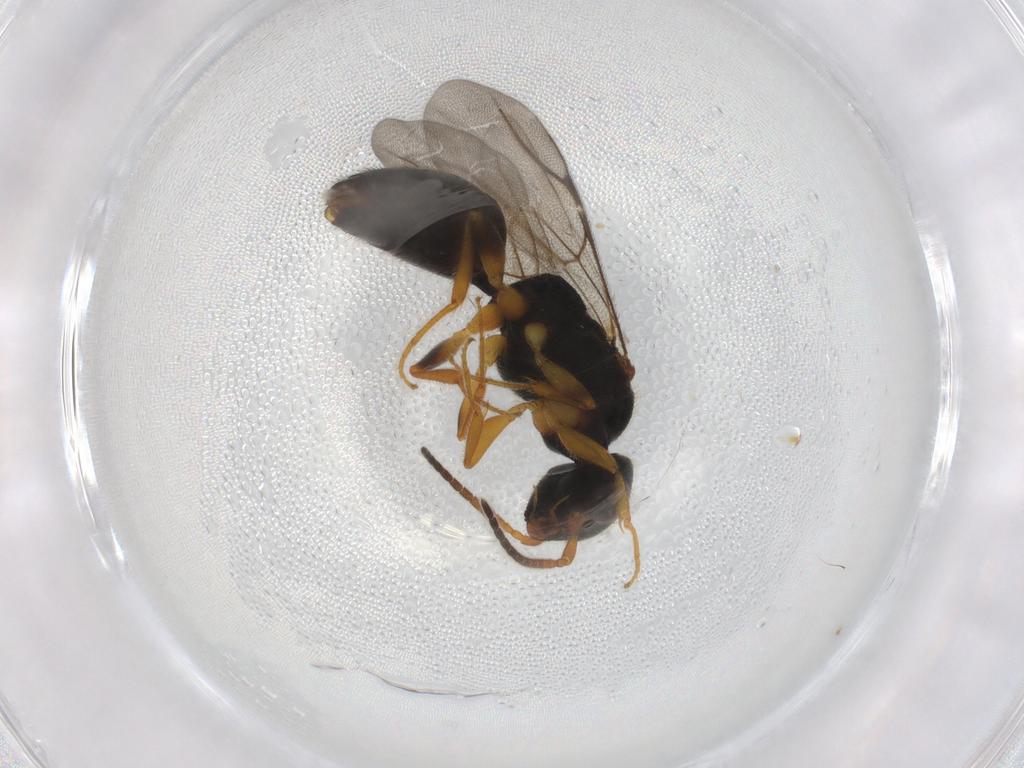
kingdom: Animalia
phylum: Arthropoda
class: Insecta
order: Hymenoptera
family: Bethylidae
